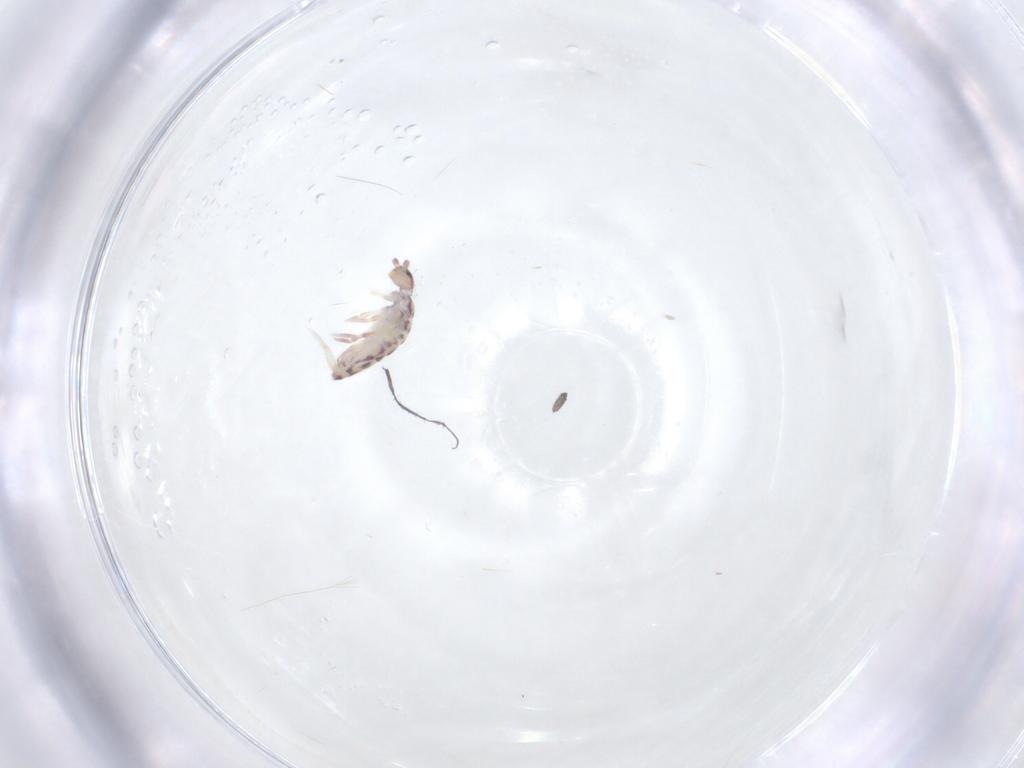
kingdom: Animalia
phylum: Arthropoda
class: Collembola
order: Entomobryomorpha
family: Entomobryidae
